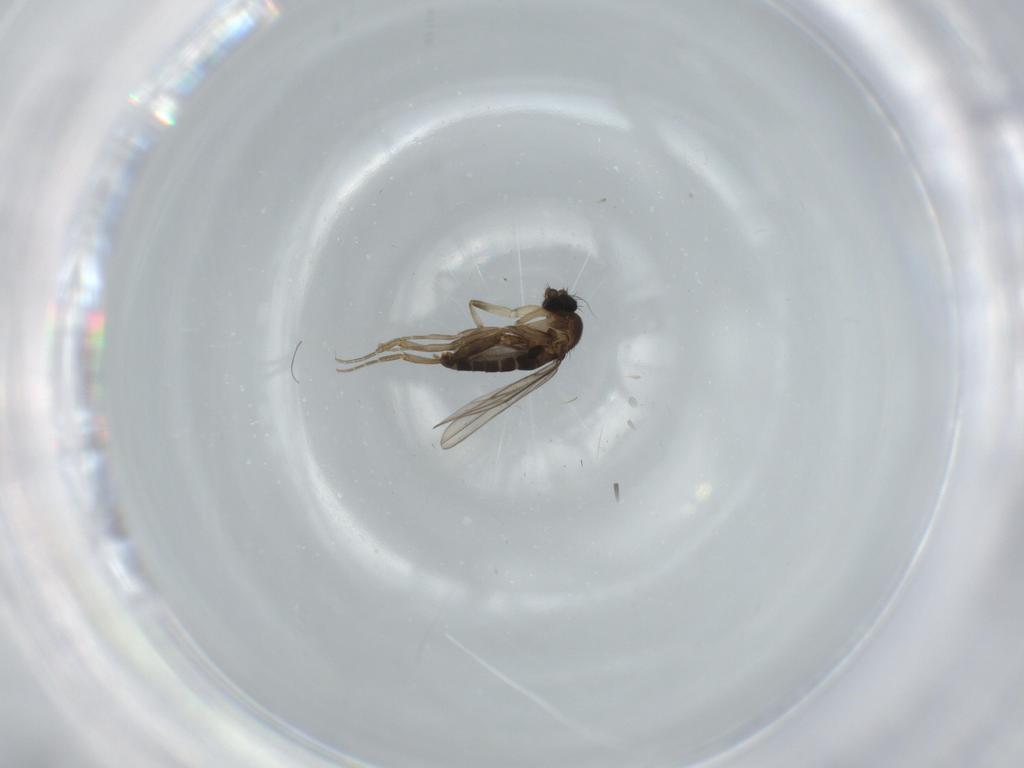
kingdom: Animalia
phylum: Arthropoda
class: Insecta
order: Diptera
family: Phoridae
